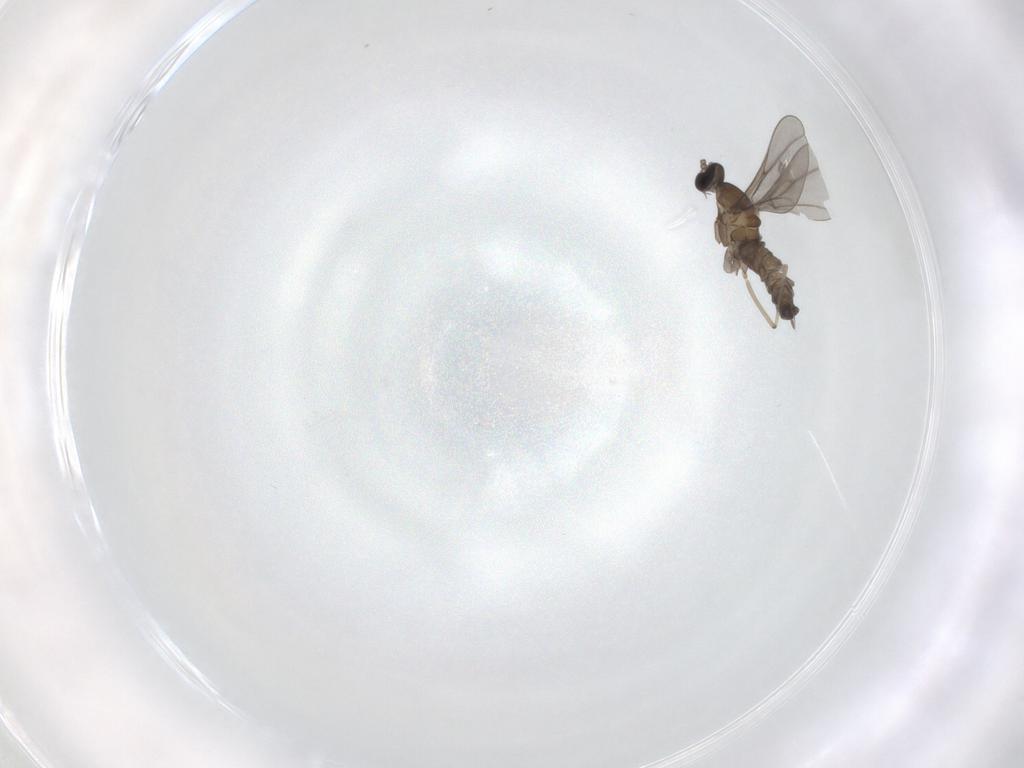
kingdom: Animalia
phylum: Arthropoda
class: Insecta
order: Diptera
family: Sciaridae
